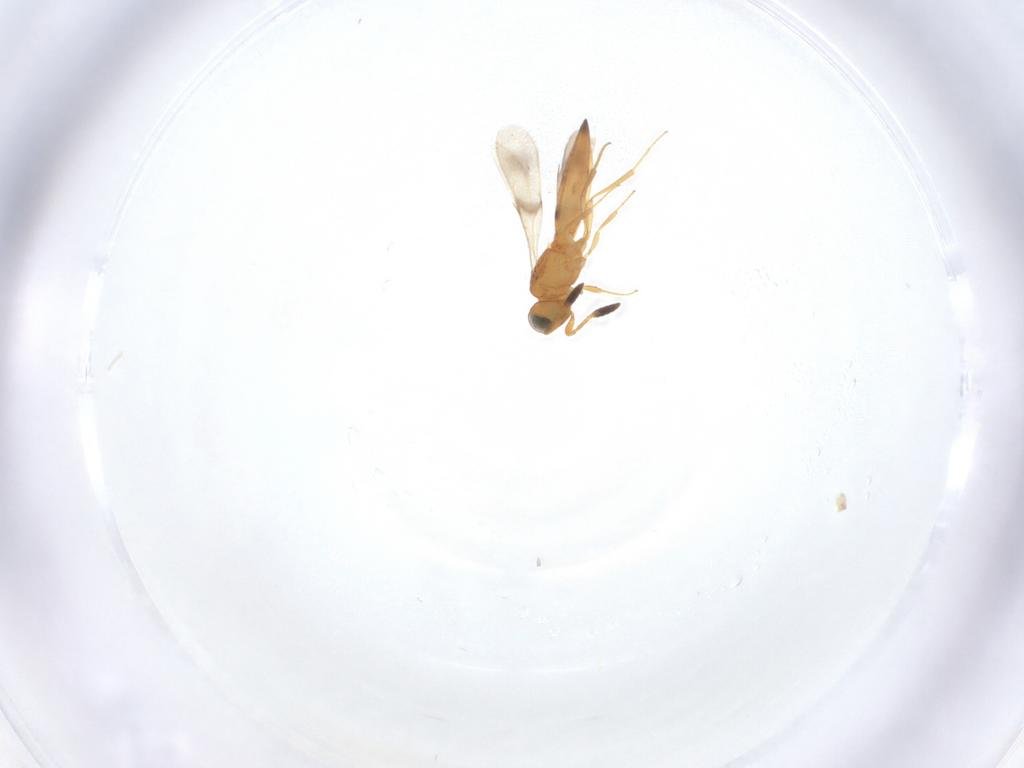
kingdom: Animalia
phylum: Arthropoda
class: Insecta
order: Hymenoptera
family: Scelionidae
